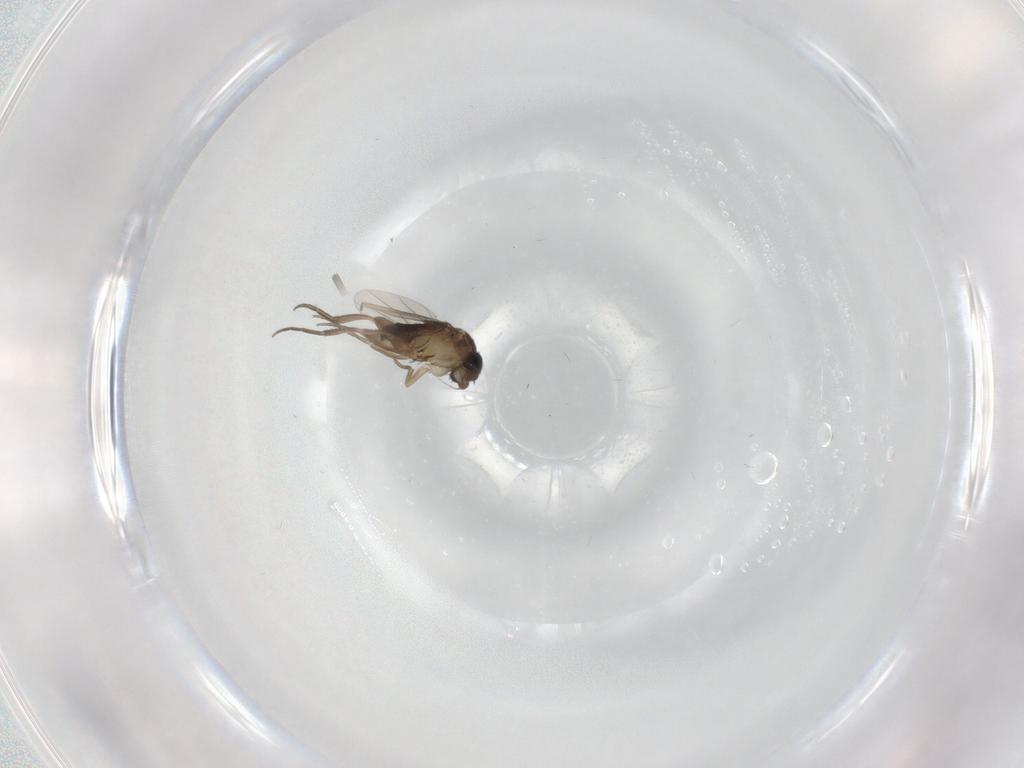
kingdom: Animalia
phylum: Arthropoda
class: Insecta
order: Diptera
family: Phoridae
